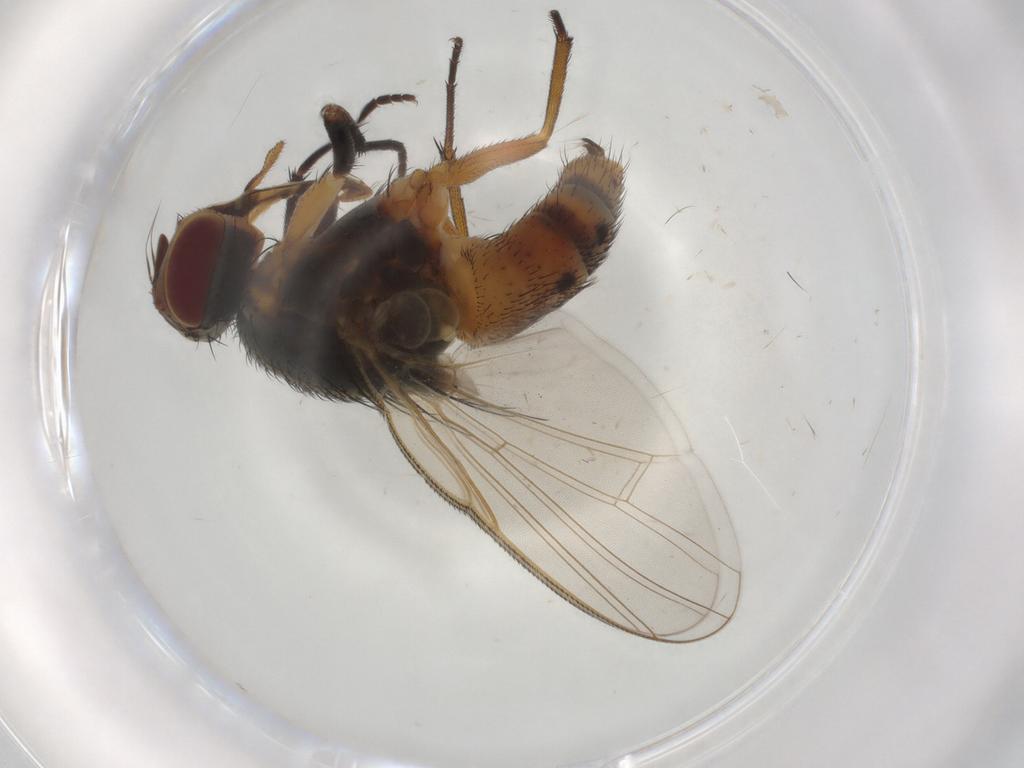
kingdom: Animalia
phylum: Arthropoda
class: Insecta
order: Diptera
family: Muscidae
